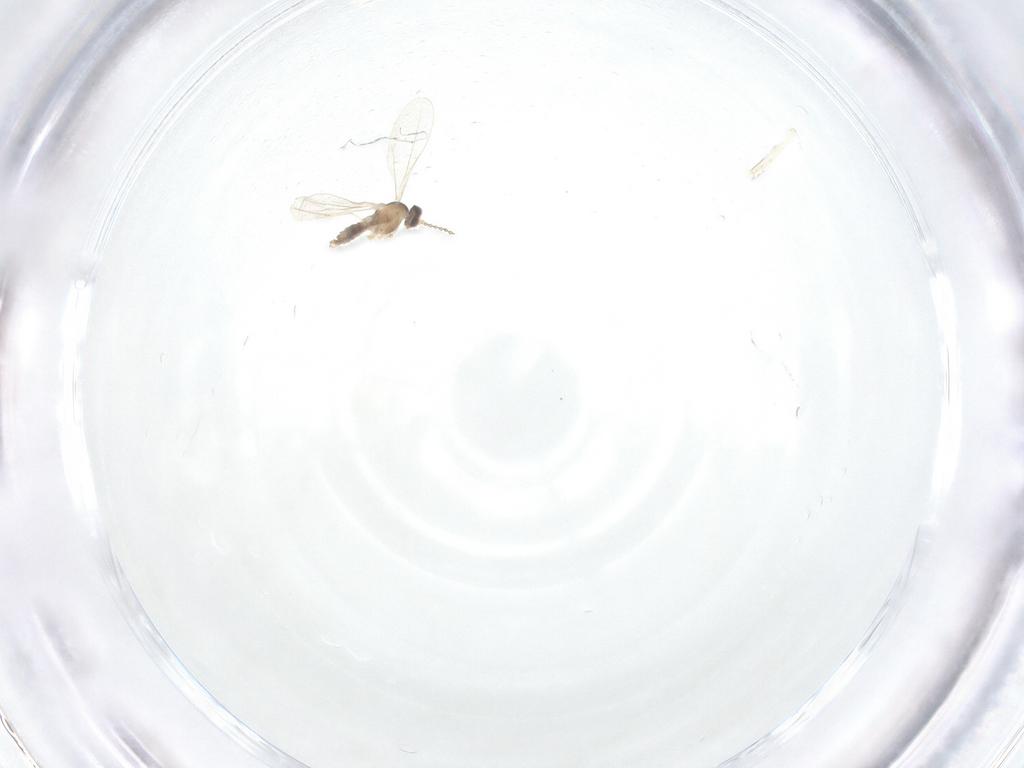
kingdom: Animalia
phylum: Arthropoda
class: Insecta
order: Diptera
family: Cecidomyiidae
